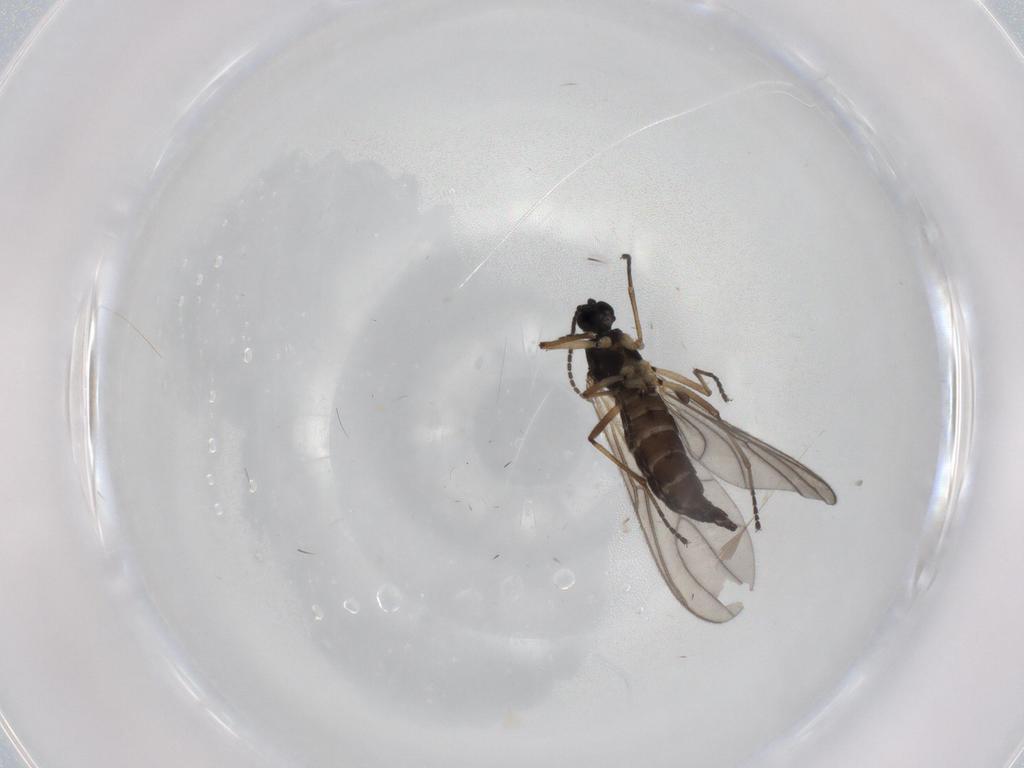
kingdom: Animalia
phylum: Arthropoda
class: Insecta
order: Diptera
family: Sciaridae
